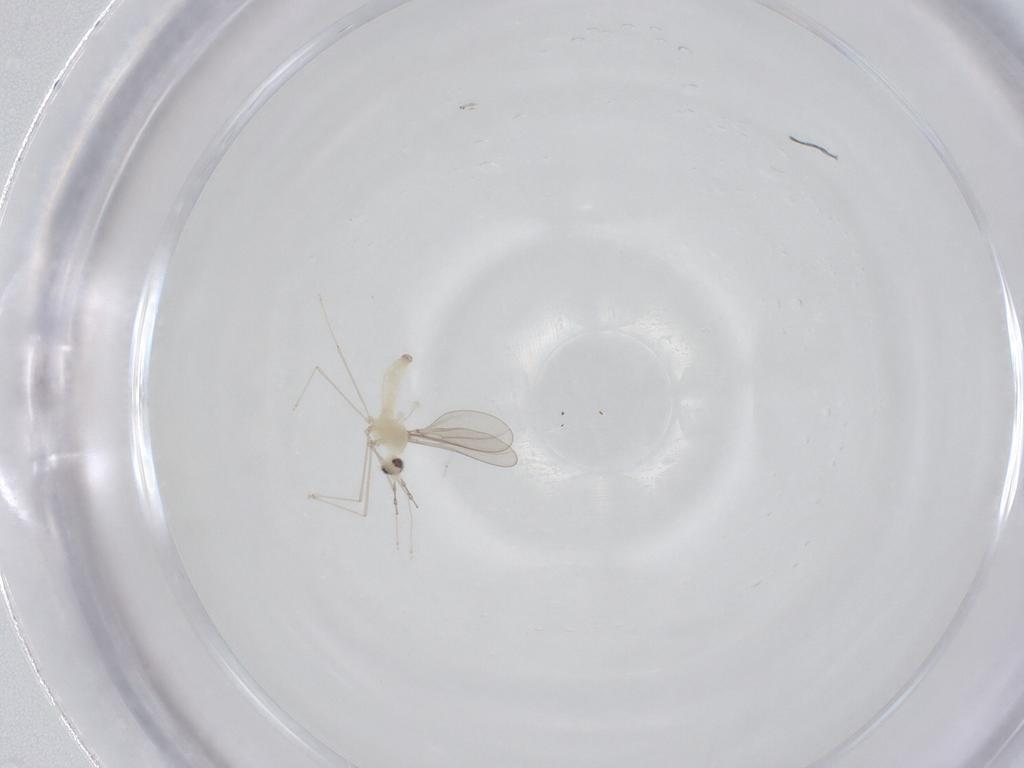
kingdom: Animalia
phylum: Arthropoda
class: Insecta
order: Diptera
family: Cecidomyiidae
